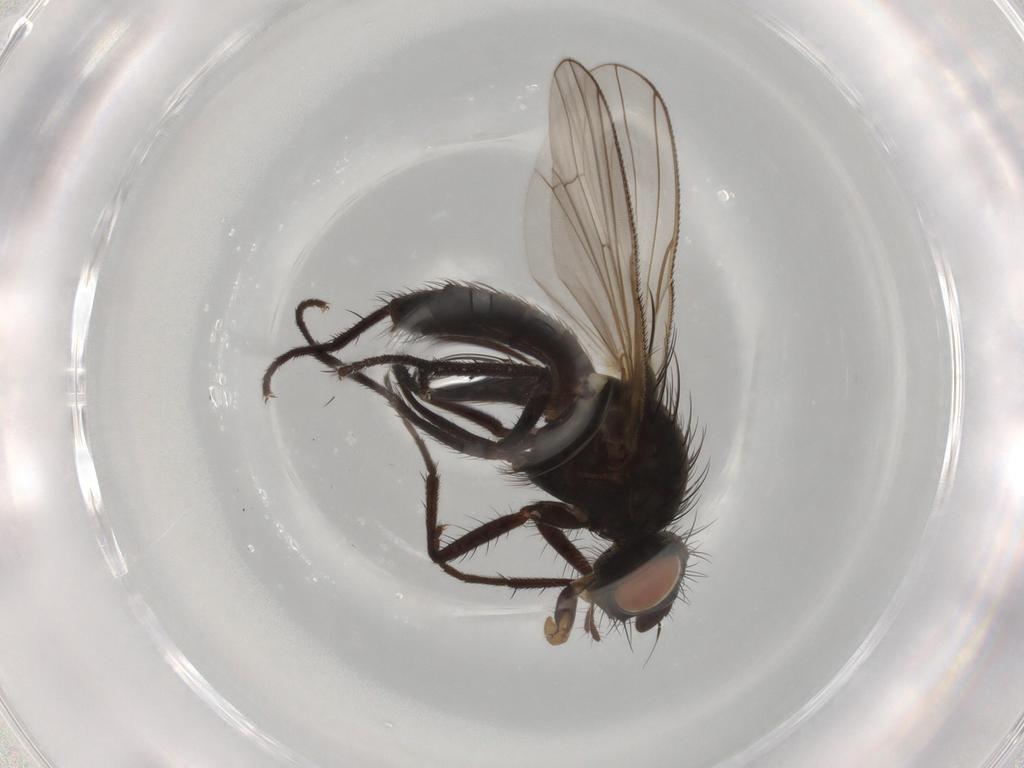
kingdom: Animalia
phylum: Arthropoda
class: Insecta
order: Diptera
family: Anthomyiidae
